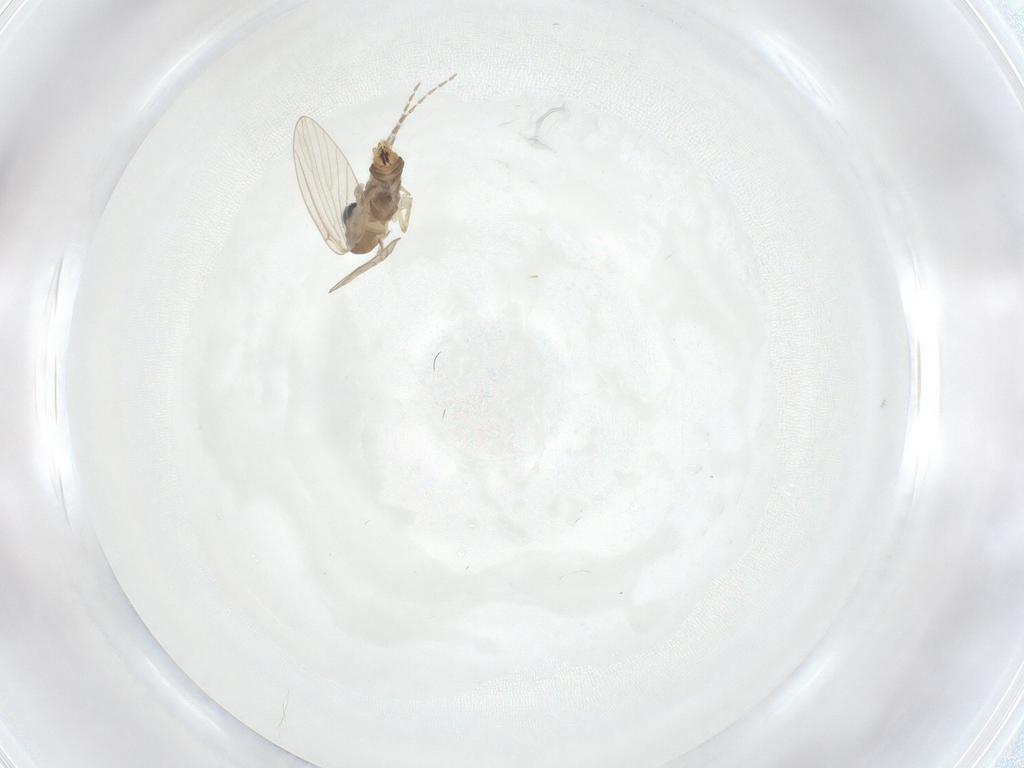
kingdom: Animalia
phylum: Arthropoda
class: Insecta
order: Diptera
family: Psychodidae
